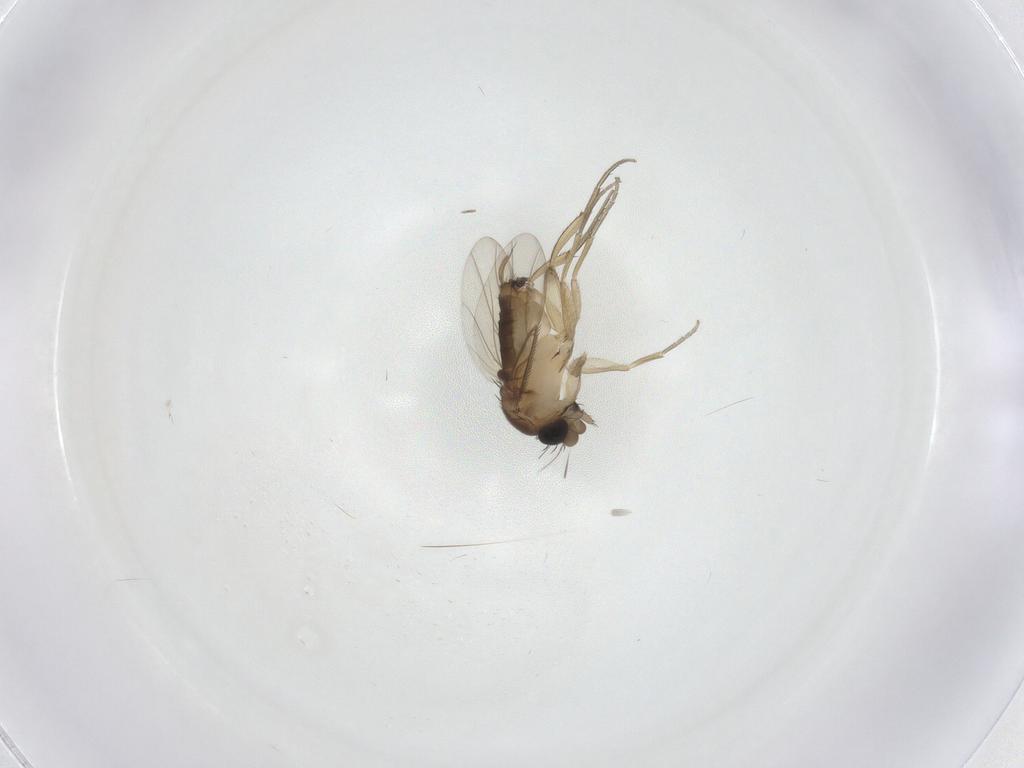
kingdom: Animalia
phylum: Arthropoda
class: Insecta
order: Diptera
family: Phoridae
